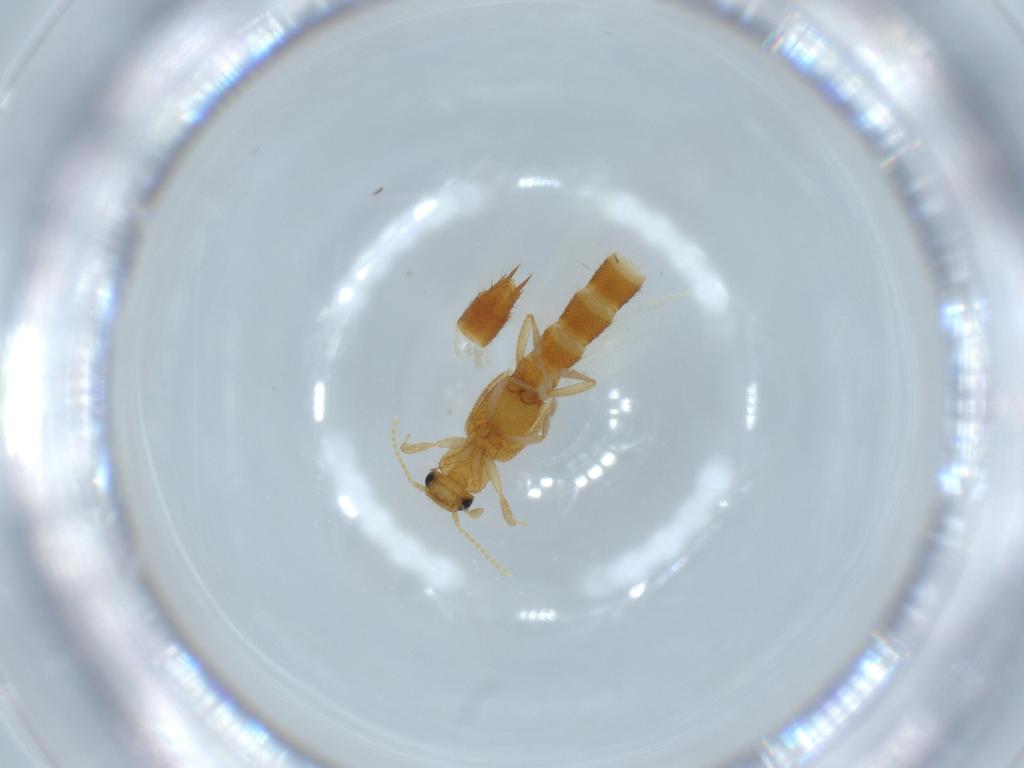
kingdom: Animalia
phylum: Arthropoda
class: Insecta
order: Coleoptera
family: Staphylinidae
